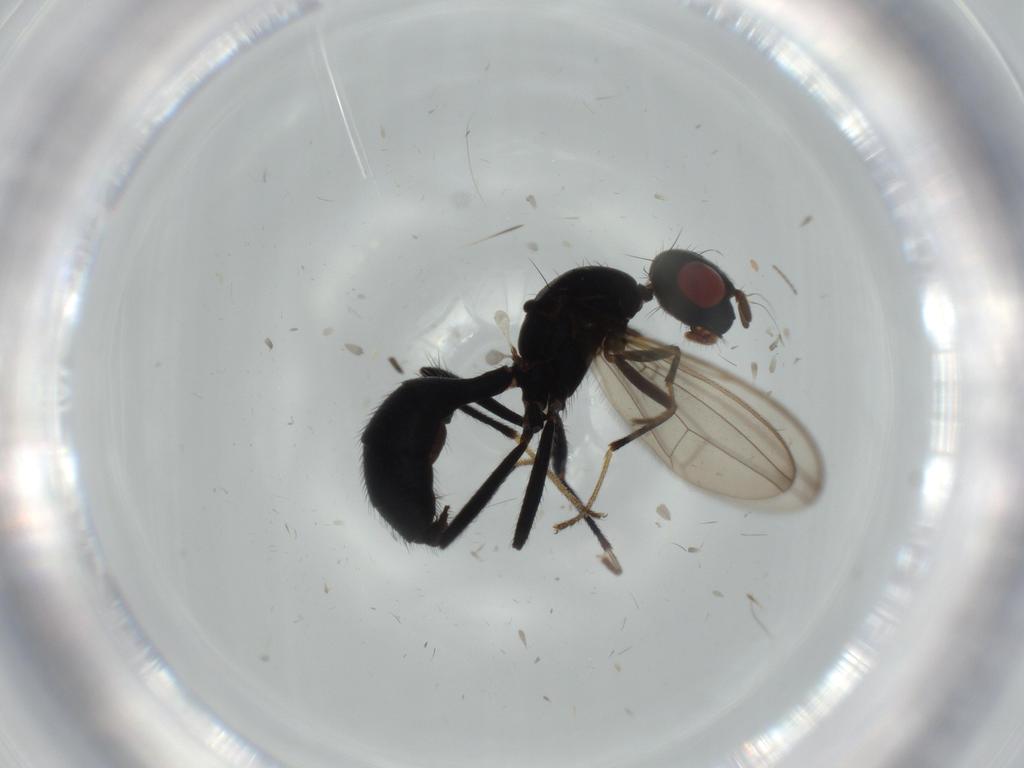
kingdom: Animalia
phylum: Arthropoda
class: Insecta
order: Diptera
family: Richardiidae
